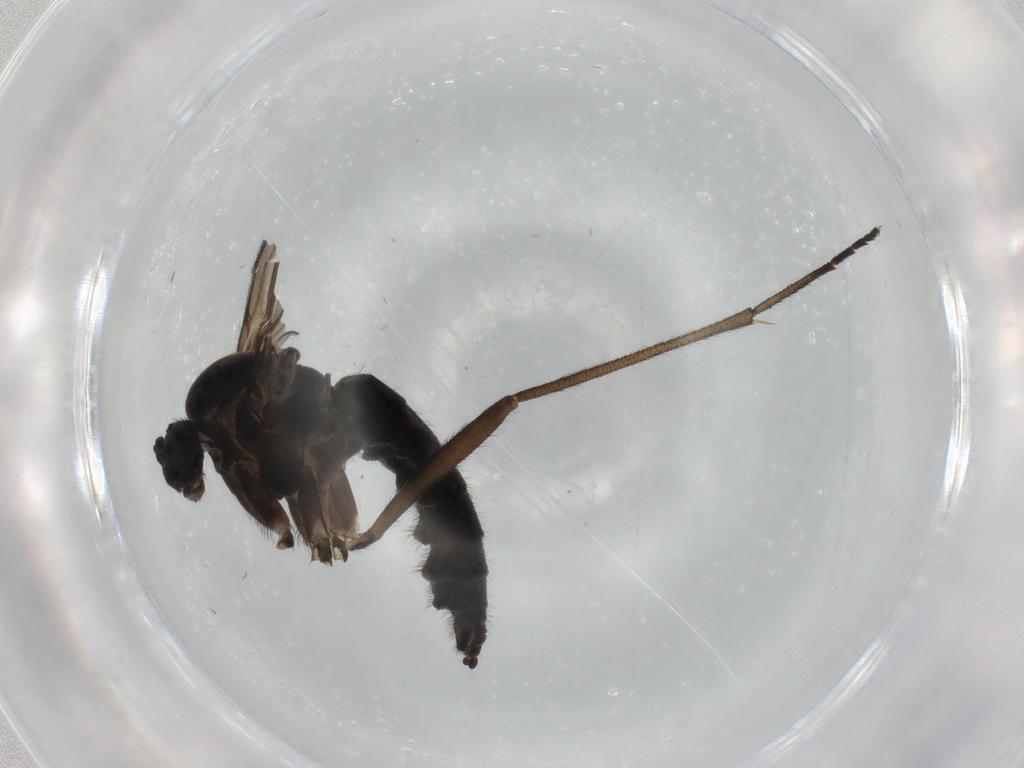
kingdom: Animalia
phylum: Arthropoda
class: Insecta
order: Diptera
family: Sciaridae
